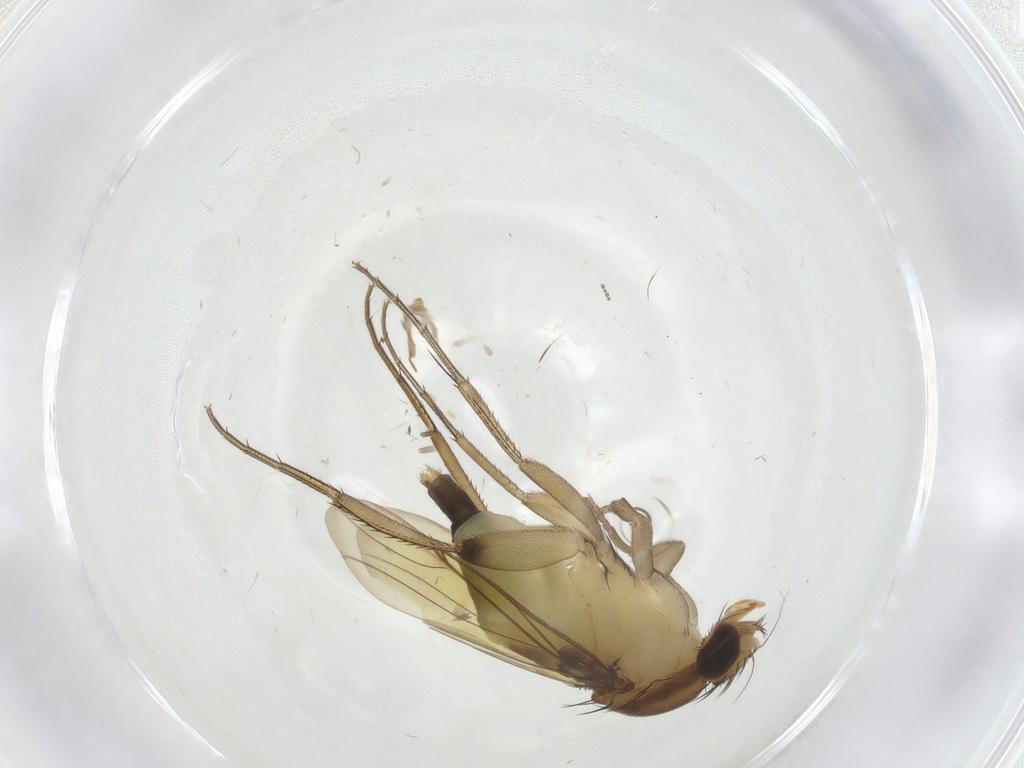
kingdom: Animalia
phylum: Arthropoda
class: Insecta
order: Diptera
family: Phoridae
